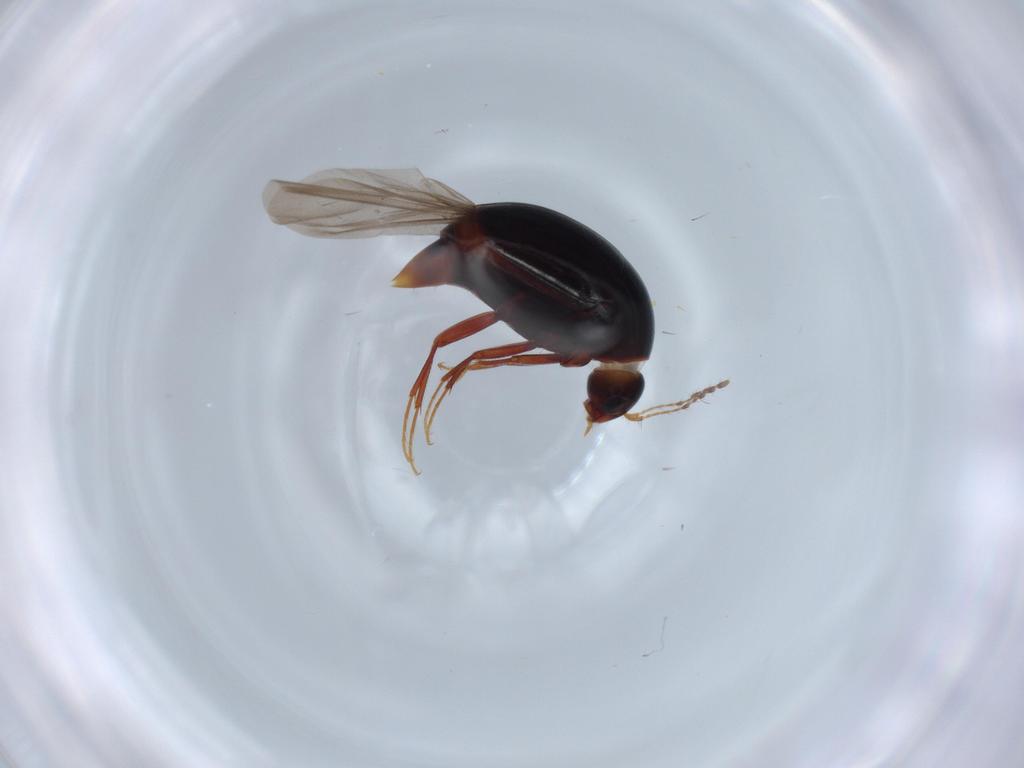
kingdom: Animalia
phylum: Arthropoda
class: Insecta
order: Coleoptera
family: Staphylinidae
